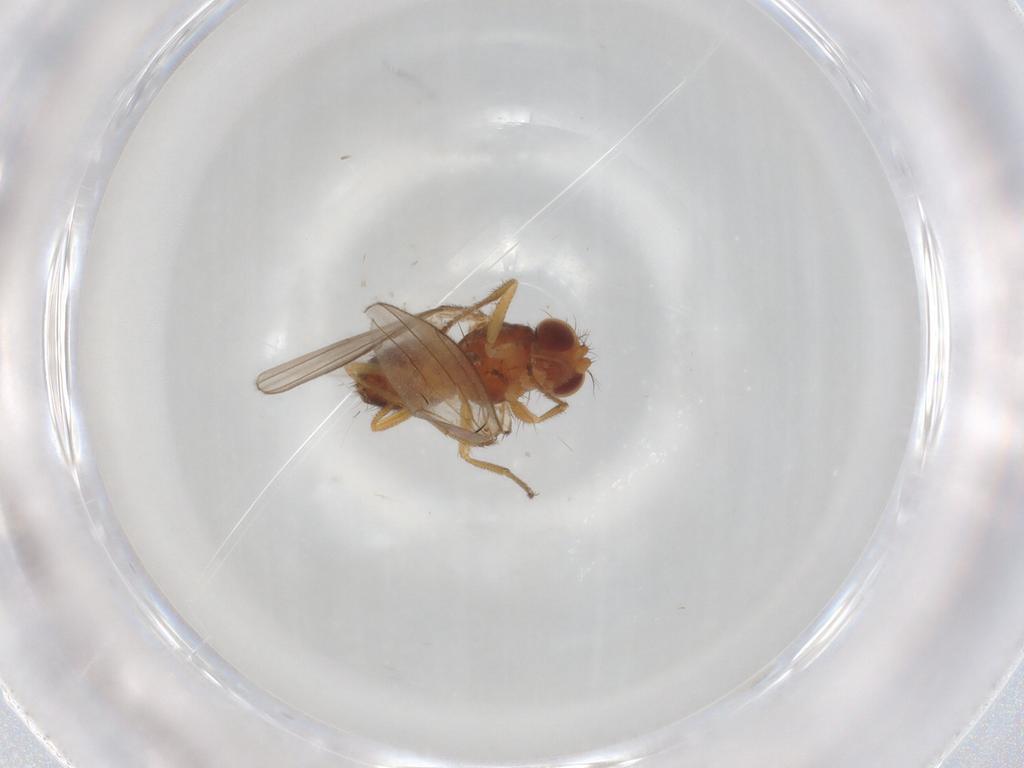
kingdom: Animalia
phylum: Arthropoda
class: Insecta
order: Diptera
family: Drosophilidae
